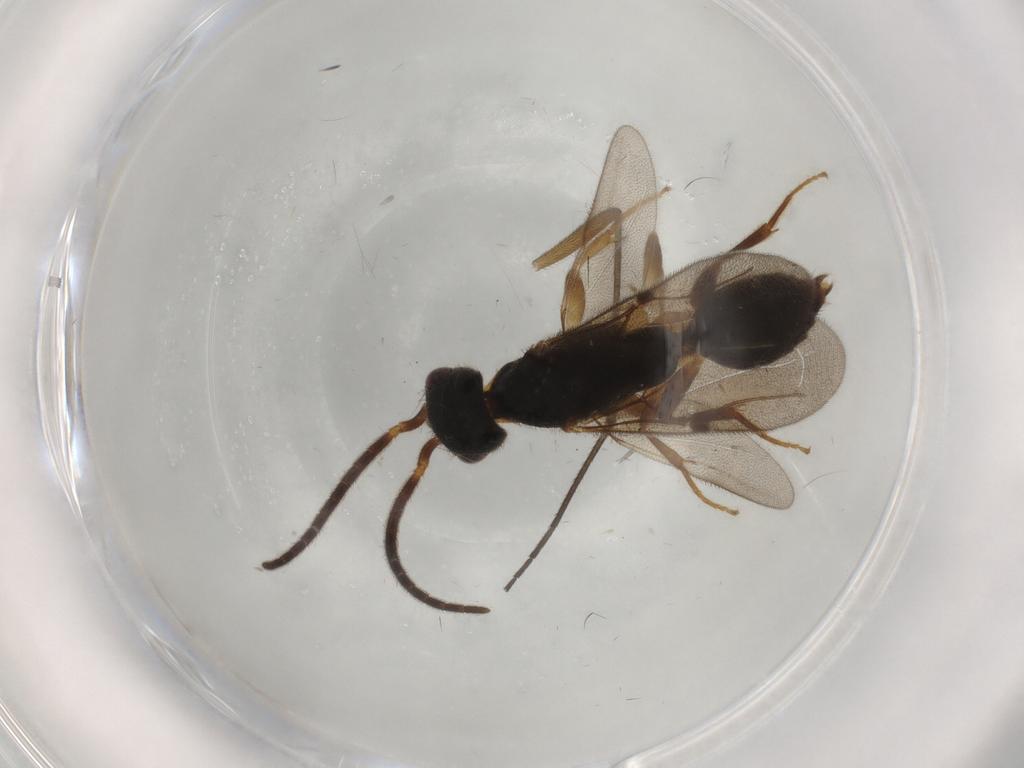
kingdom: Animalia
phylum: Arthropoda
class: Insecta
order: Hymenoptera
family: Bethylidae
